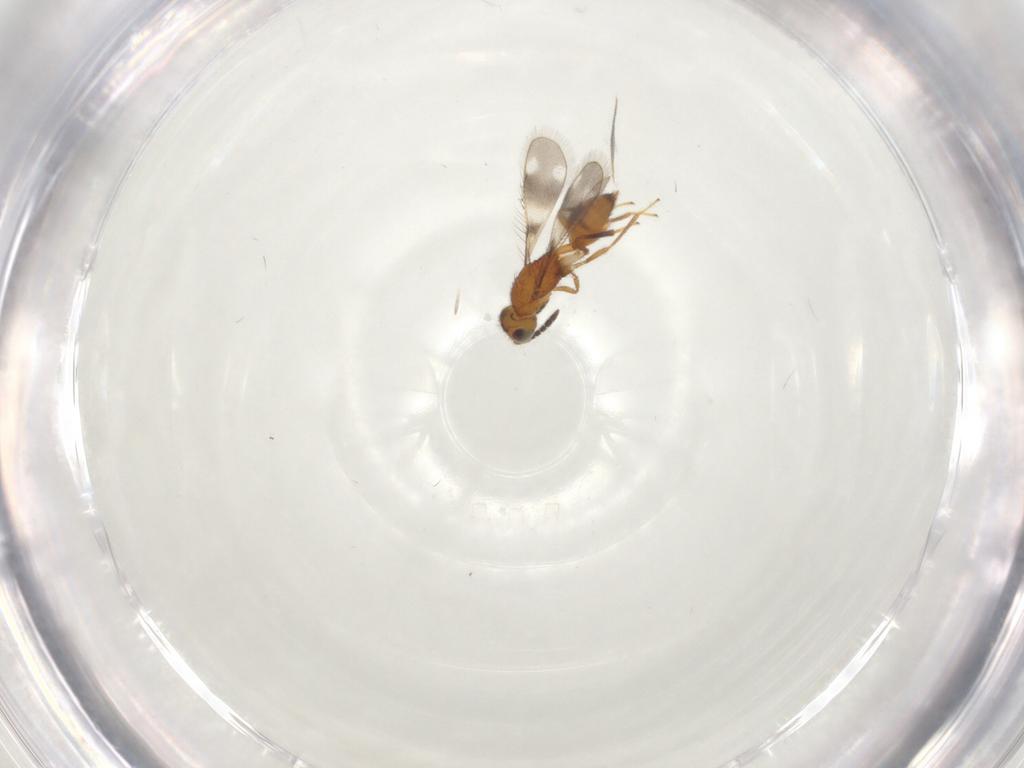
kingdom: Animalia
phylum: Arthropoda
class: Insecta
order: Hymenoptera
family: Pteromalidae
